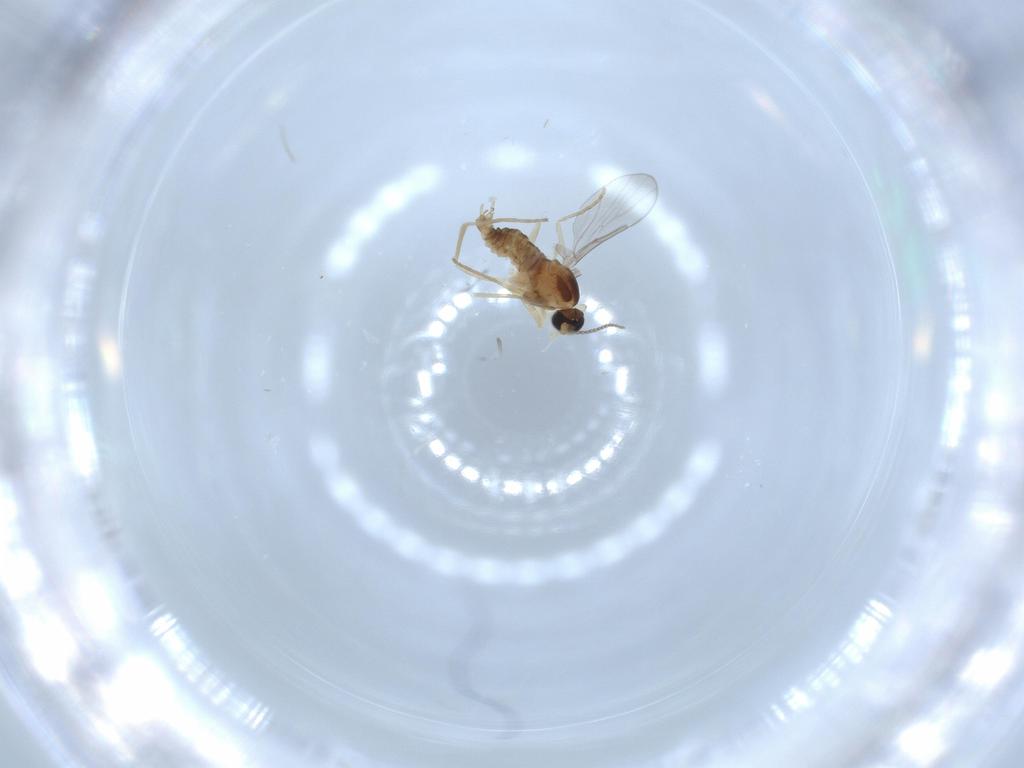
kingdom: Animalia
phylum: Arthropoda
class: Insecta
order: Diptera
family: Cecidomyiidae
